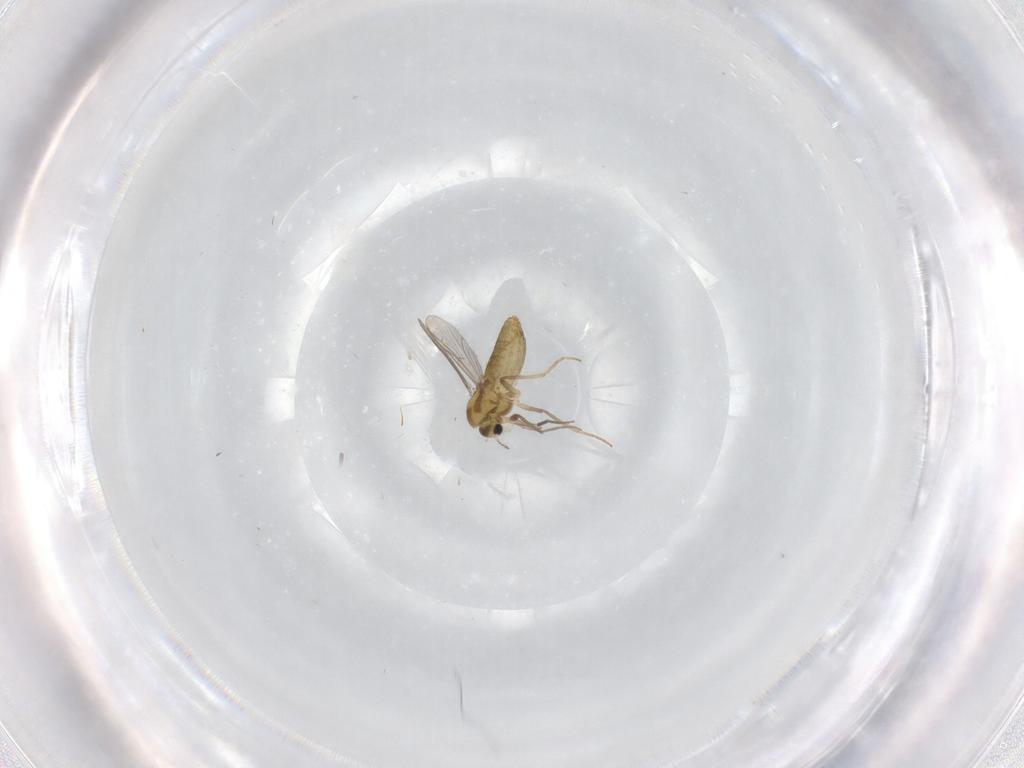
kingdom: Animalia
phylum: Arthropoda
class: Insecta
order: Diptera
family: Chironomidae
